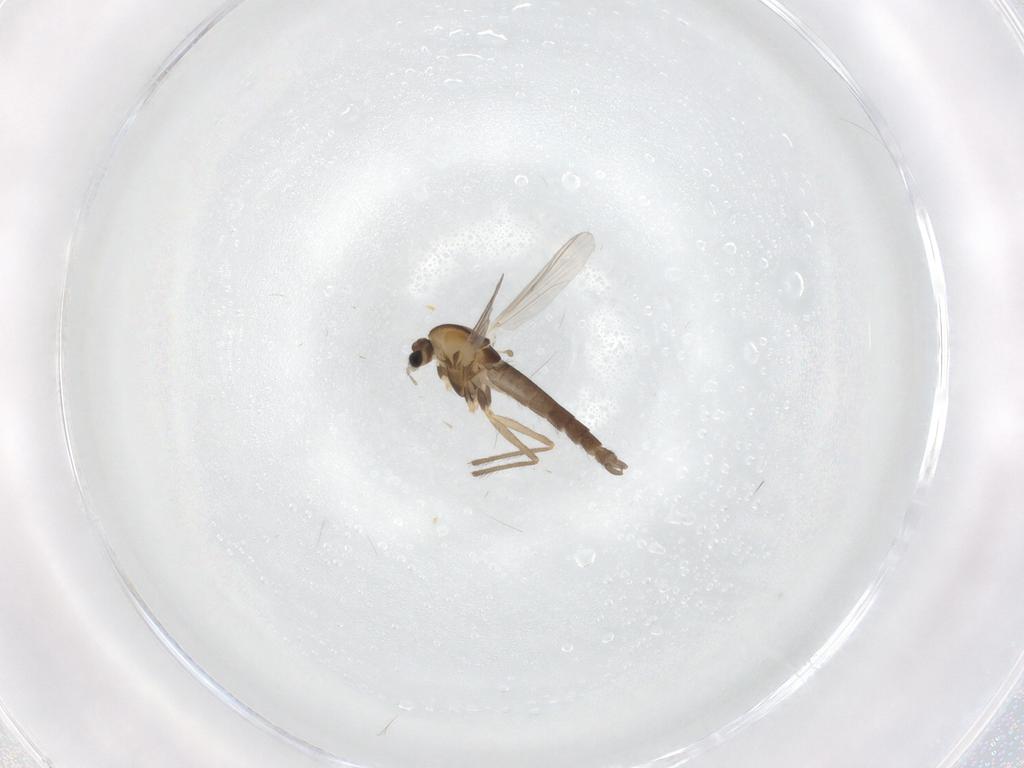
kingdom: Animalia
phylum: Arthropoda
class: Insecta
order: Diptera
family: Chironomidae
